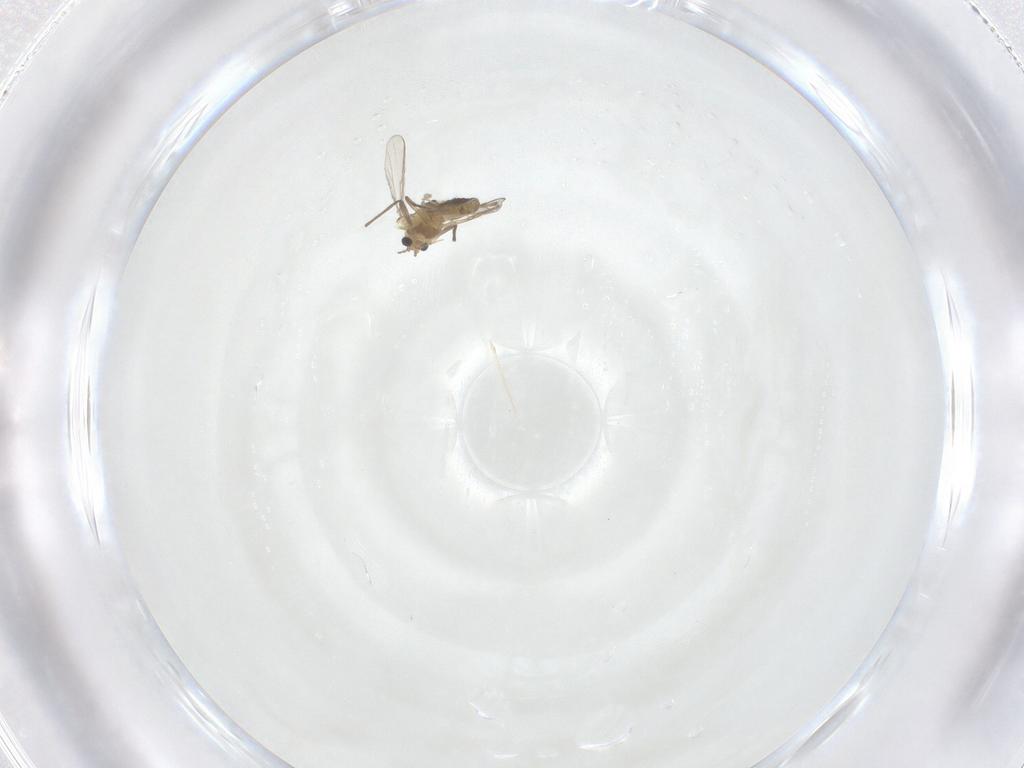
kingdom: Animalia
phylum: Arthropoda
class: Insecta
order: Diptera
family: Chironomidae
